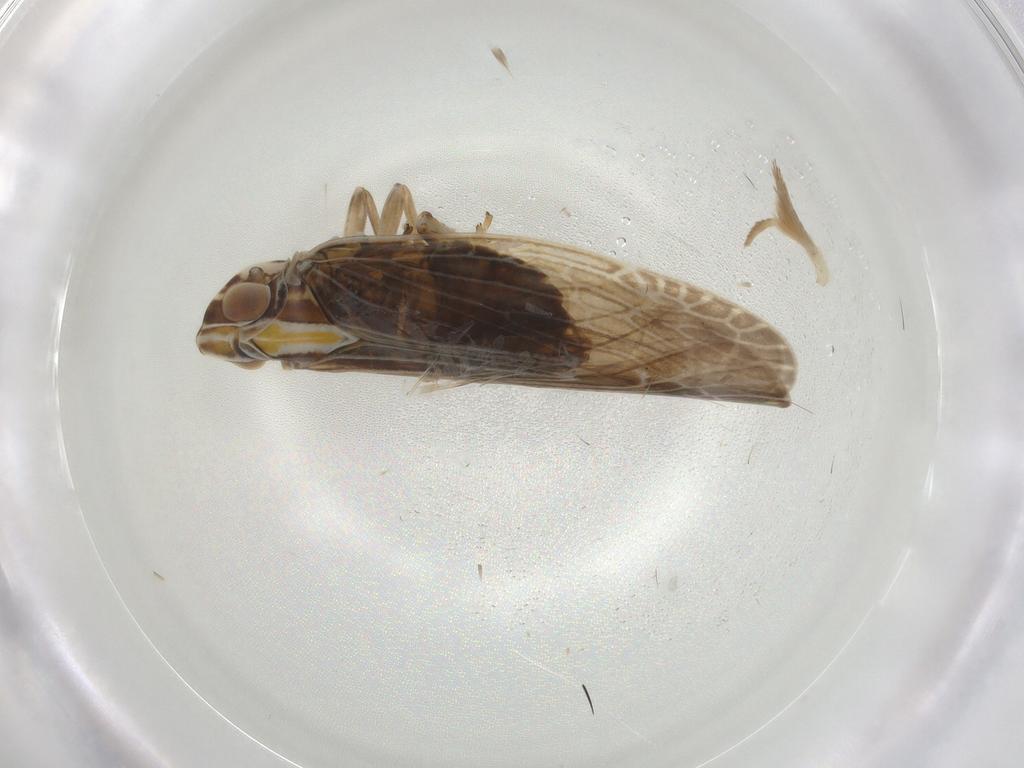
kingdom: Animalia
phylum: Arthropoda
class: Insecta
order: Hemiptera
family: Achilidae
